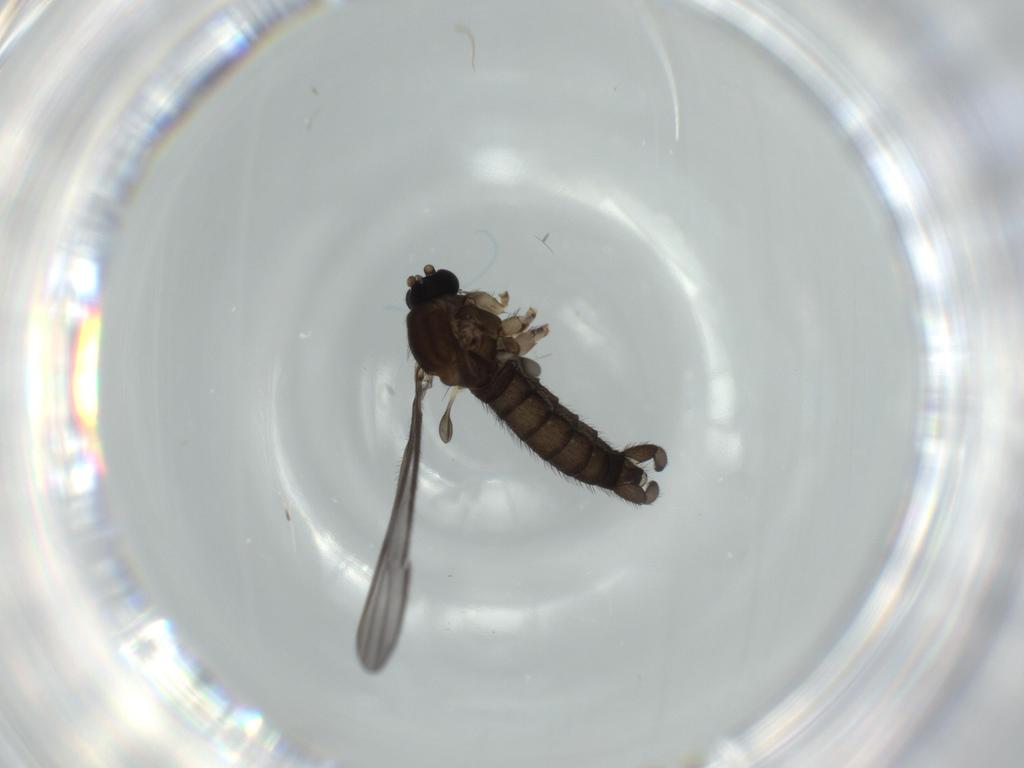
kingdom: Animalia
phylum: Arthropoda
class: Insecta
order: Diptera
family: Sciaridae
